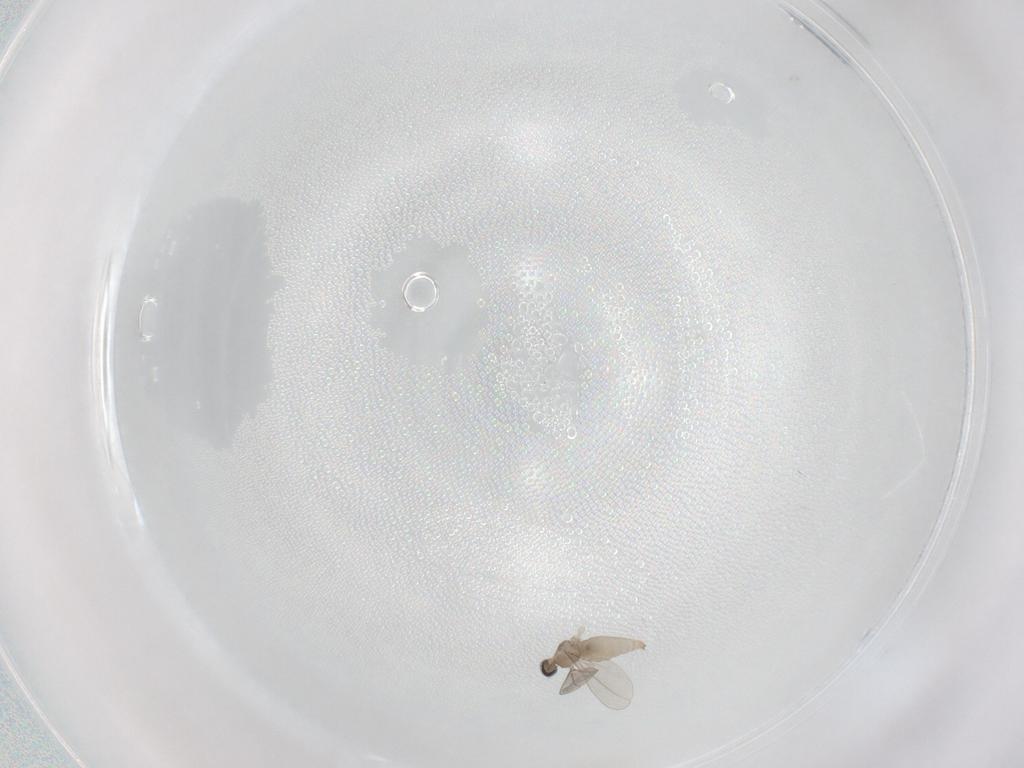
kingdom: Animalia
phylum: Arthropoda
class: Insecta
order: Diptera
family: Cecidomyiidae
